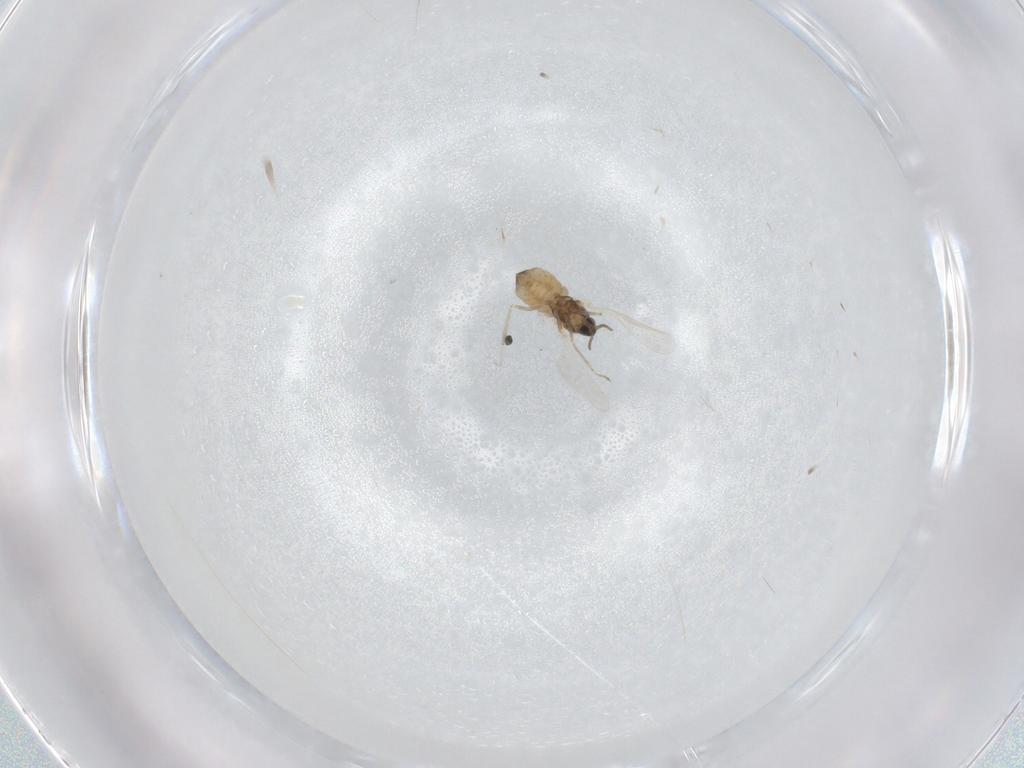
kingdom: Animalia
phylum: Arthropoda
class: Insecta
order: Diptera
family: Cecidomyiidae
